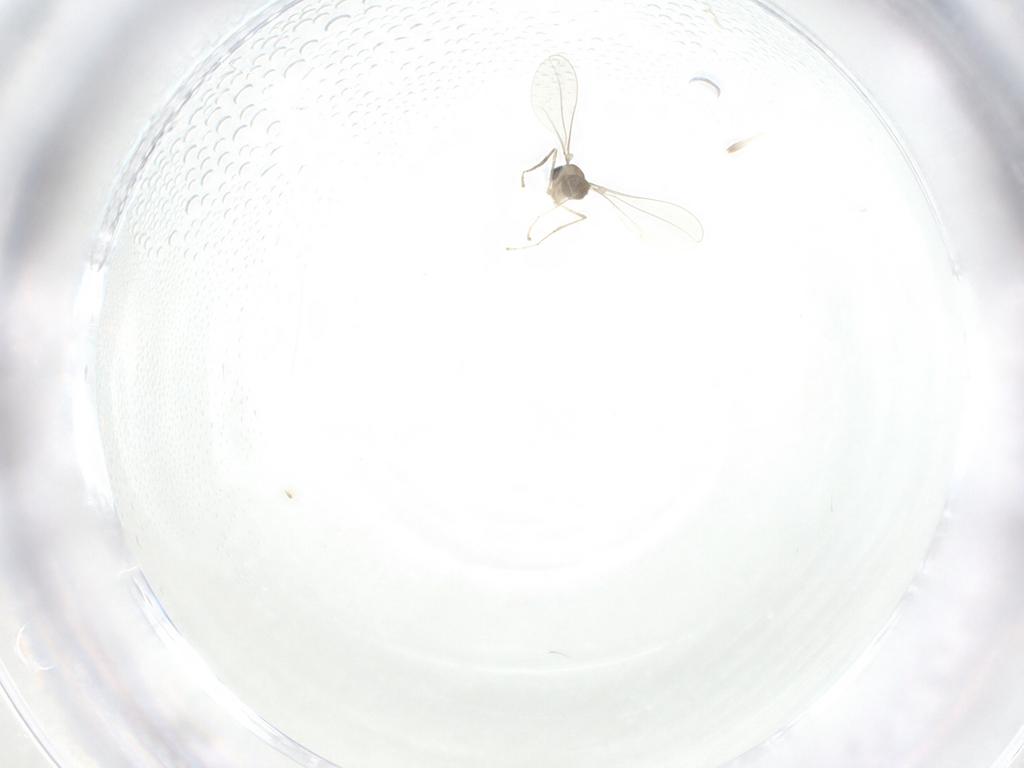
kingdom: Animalia
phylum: Arthropoda
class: Insecta
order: Diptera
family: Cecidomyiidae
